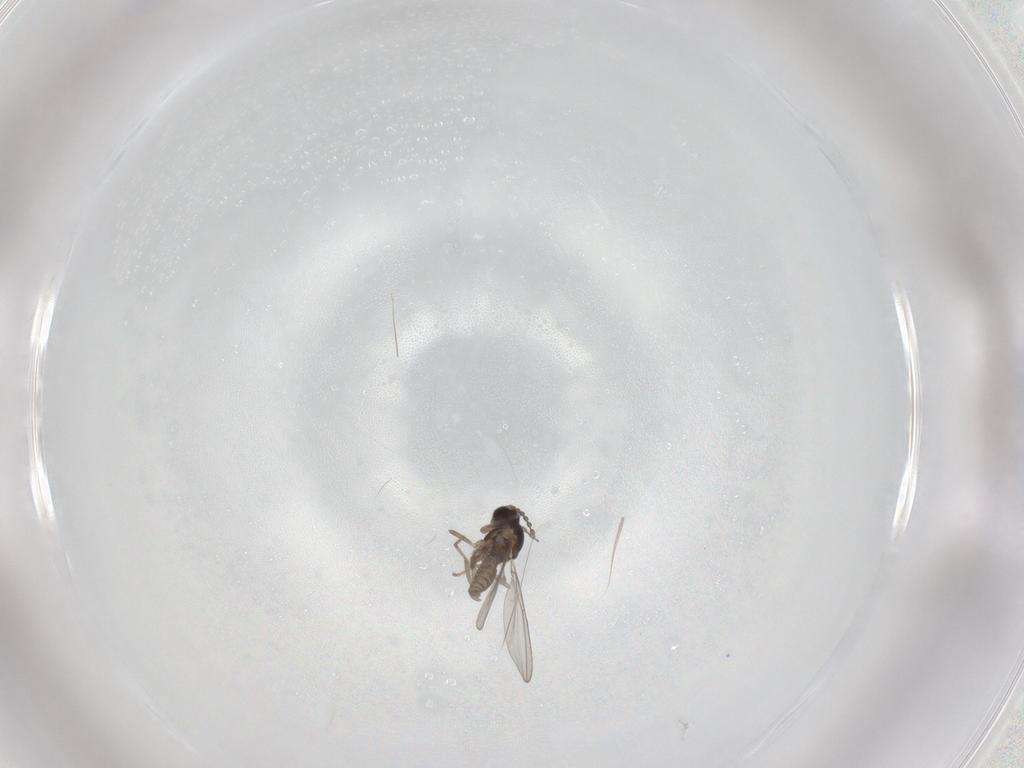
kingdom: Animalia
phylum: Arthropoda
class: Insecta
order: Diptera
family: Cecidomyiidae
